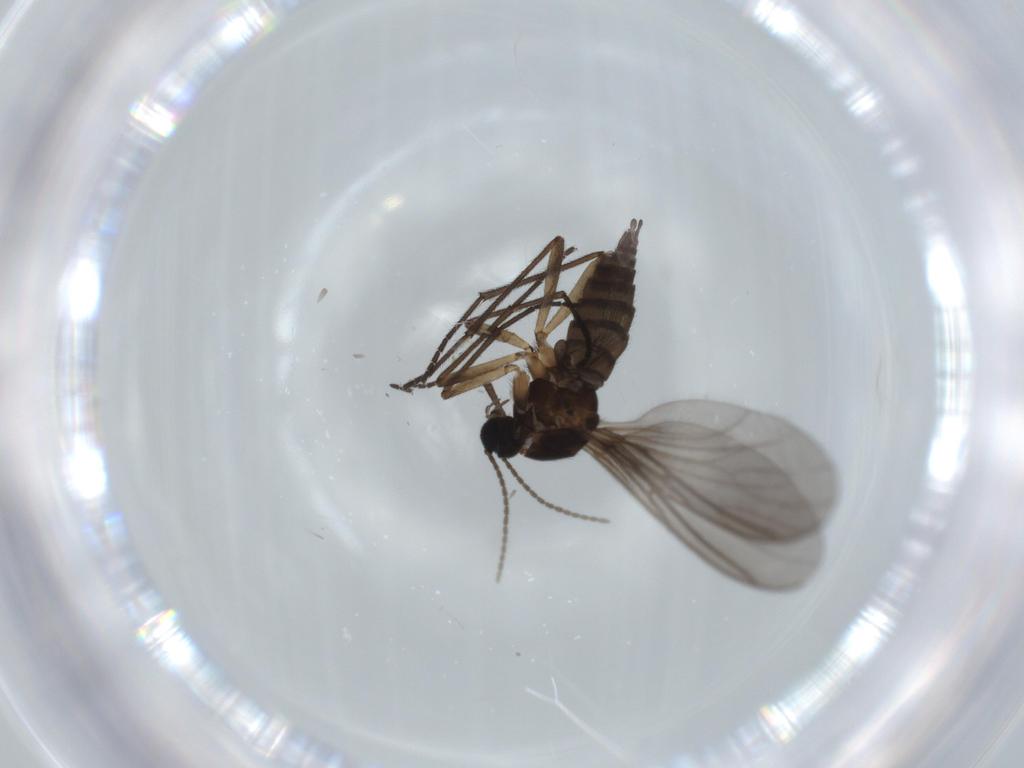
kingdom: Animalia
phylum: Arthropoda
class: Insecta
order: Diptera
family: Sciaridae
